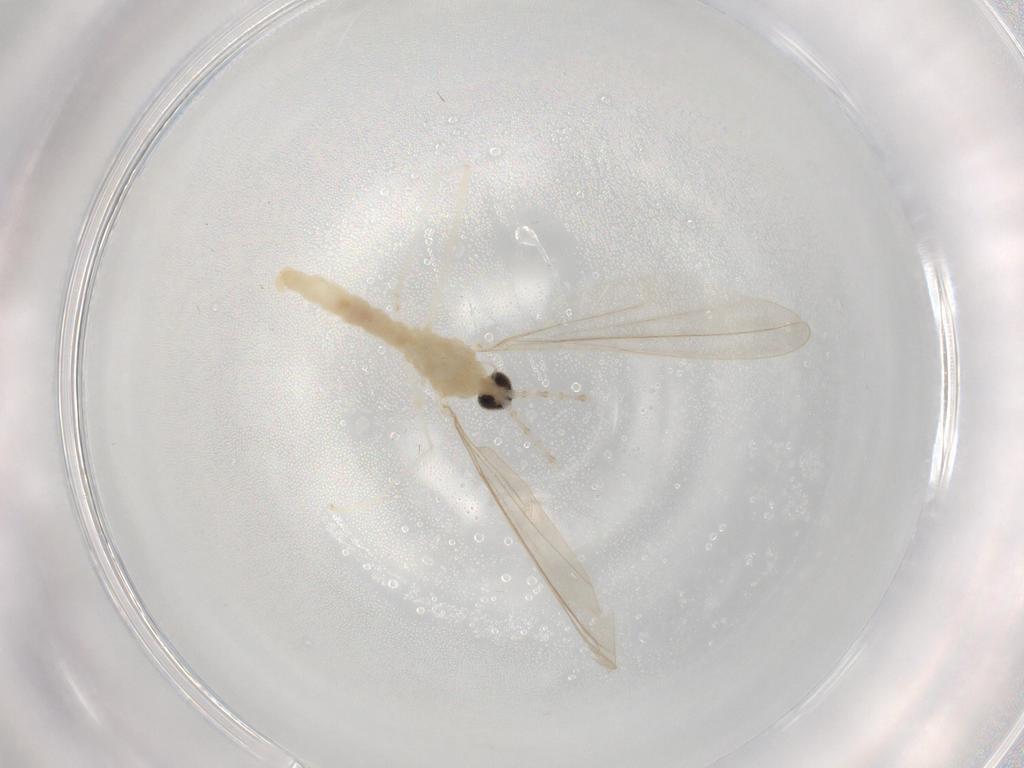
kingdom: Animalia
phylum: Arthropoda
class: Insecta
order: Diptera
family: Cecidomyiidae
